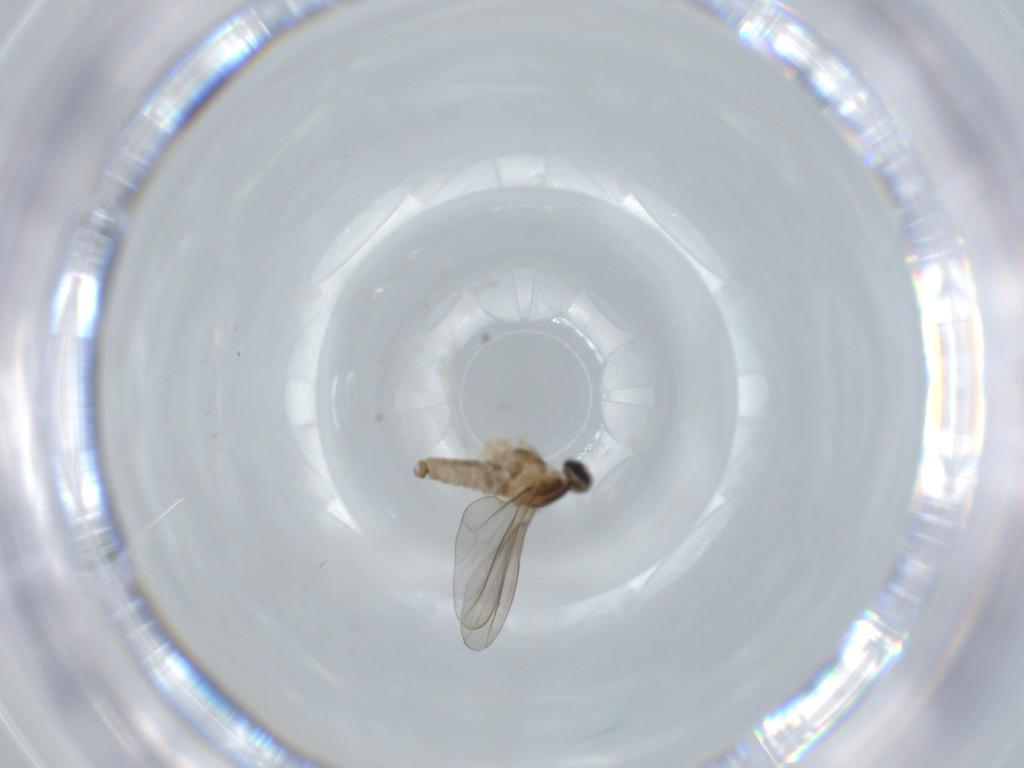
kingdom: Animalia
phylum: Arthropoda
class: Insecta
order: Diptera
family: Cecidomyiidae
